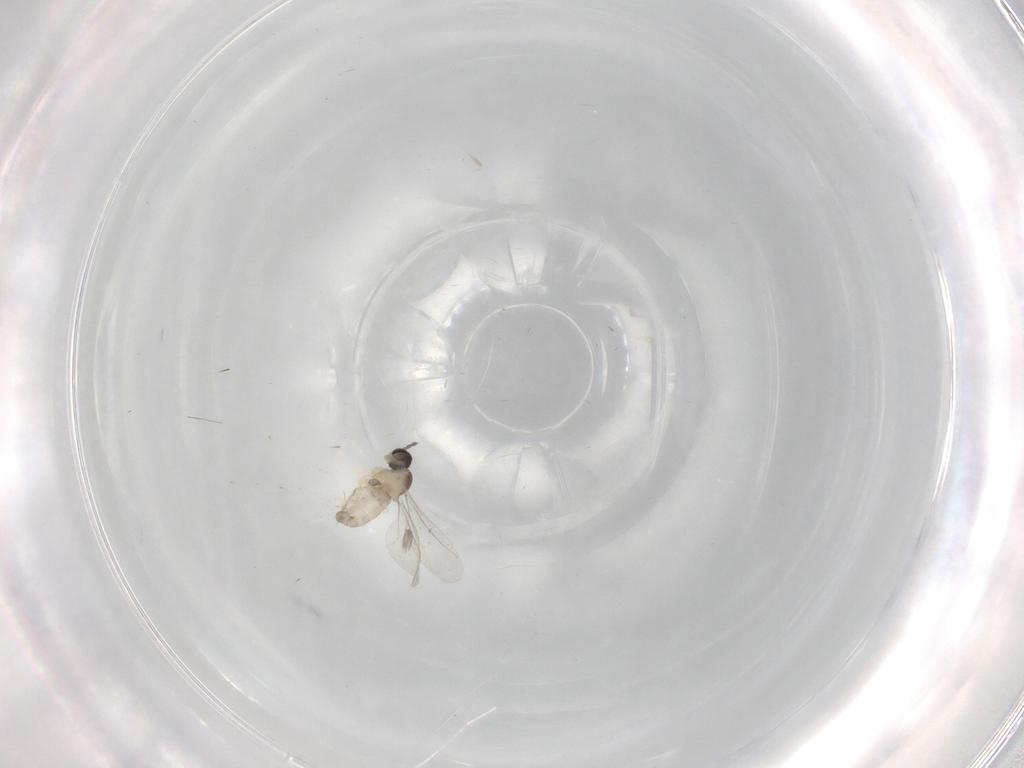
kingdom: Animalia
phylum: Arthropoda
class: Insecta
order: Diptera
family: Cecidomyiidae
